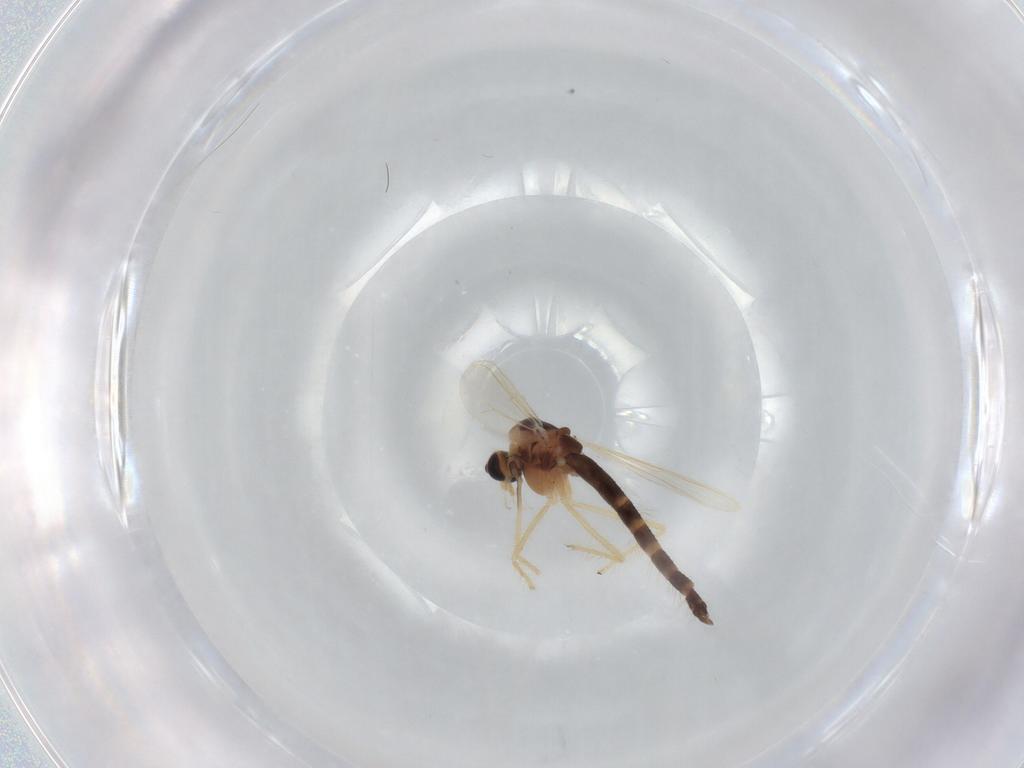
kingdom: Animalia
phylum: Arthropoda
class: Insecta
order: Diptera
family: Chironomidae
